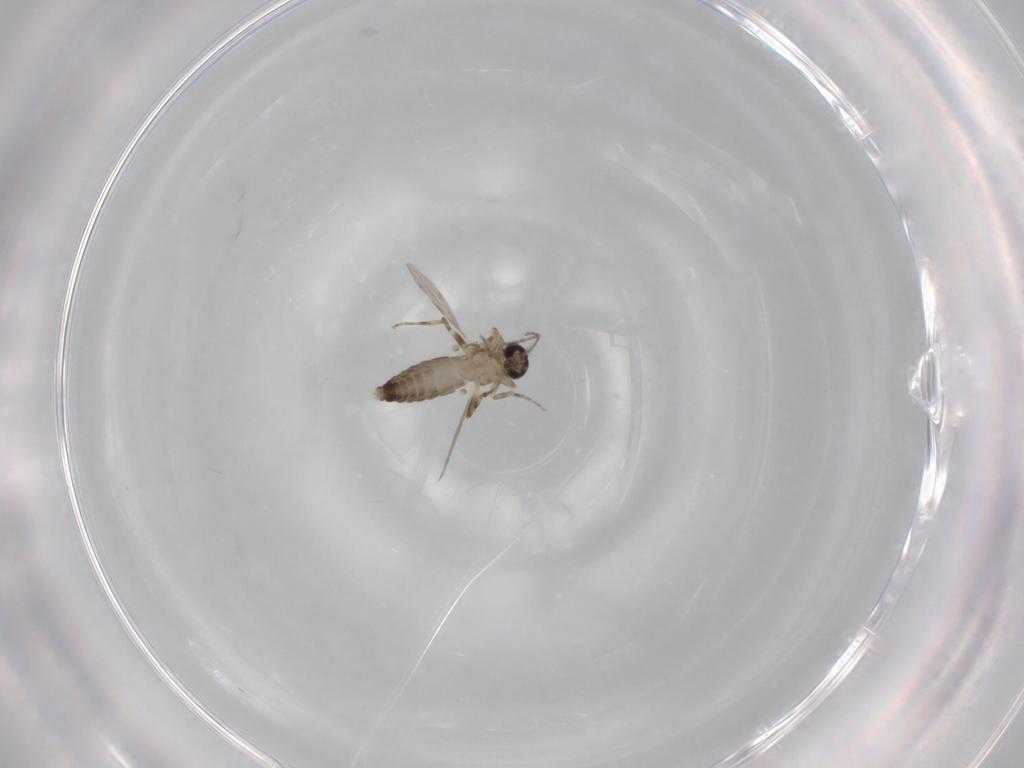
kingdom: Animalia
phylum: Arthropoda
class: Insecta
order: Diptera
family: Ceratopogonidae
